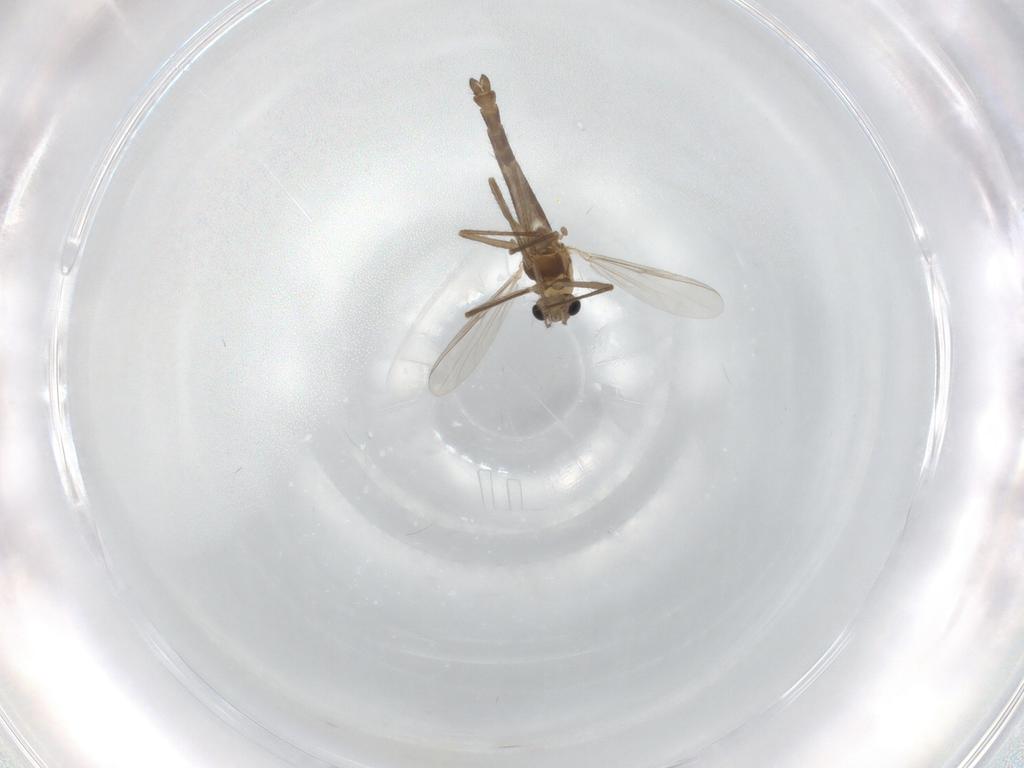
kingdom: Animalia
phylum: Arthropoda
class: Insecta
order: Diptera
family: Chironomidae
